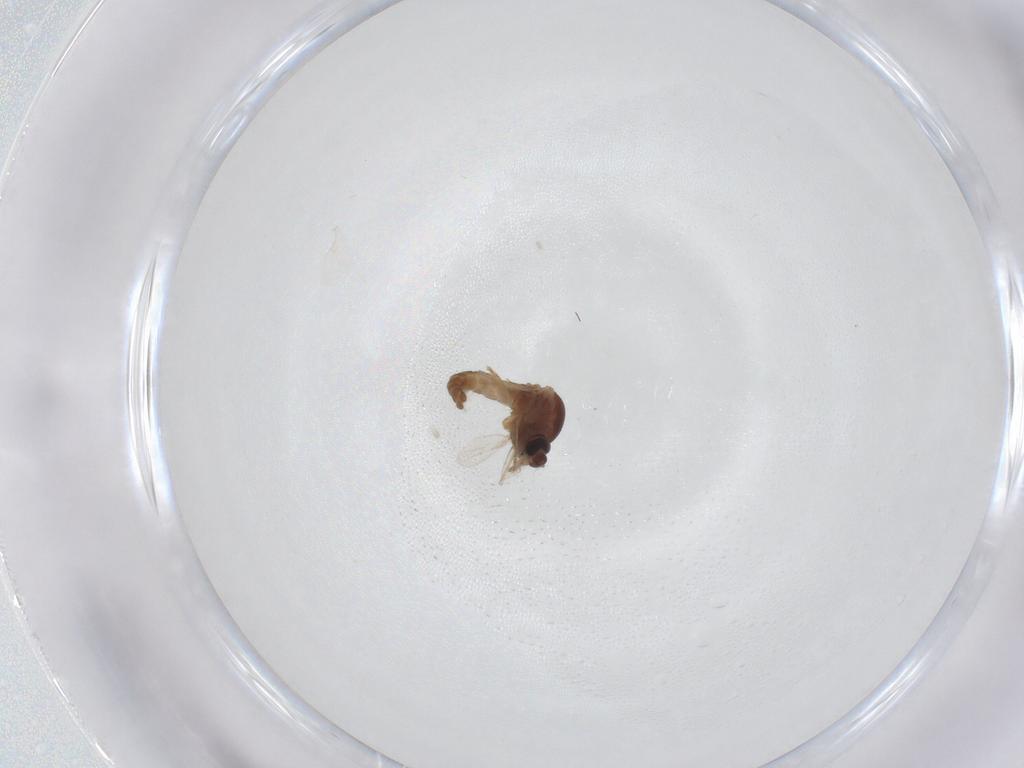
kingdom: Animalia
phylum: Arthropoda
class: Insecta
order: Diptera
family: Ceratopogonidae
